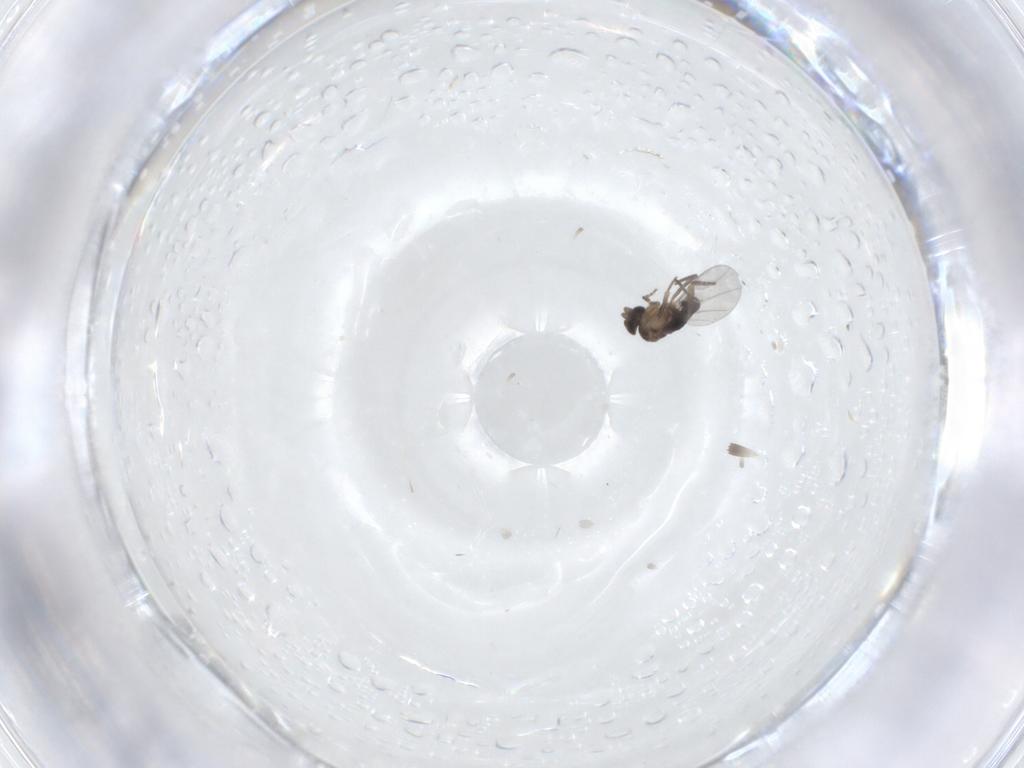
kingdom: Animalia
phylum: Arthropoda
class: Insecta
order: Diptera
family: Phoridae
